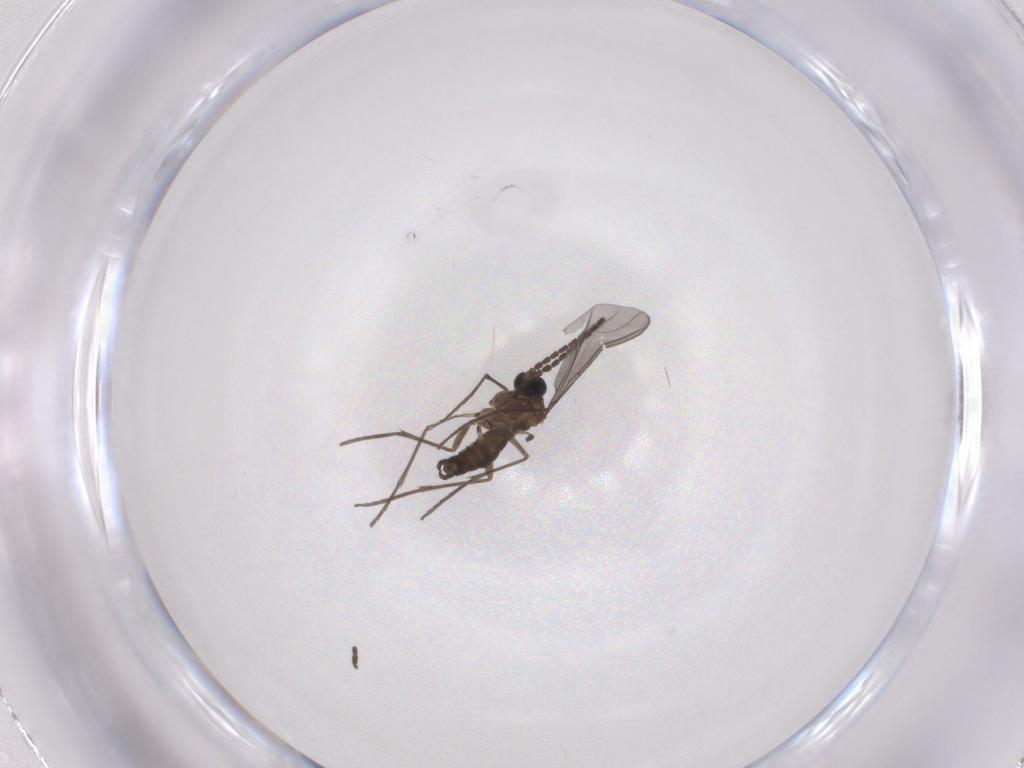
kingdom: Animalia
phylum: Arthropoda
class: Insecta
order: Diptera
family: Sciaridae
